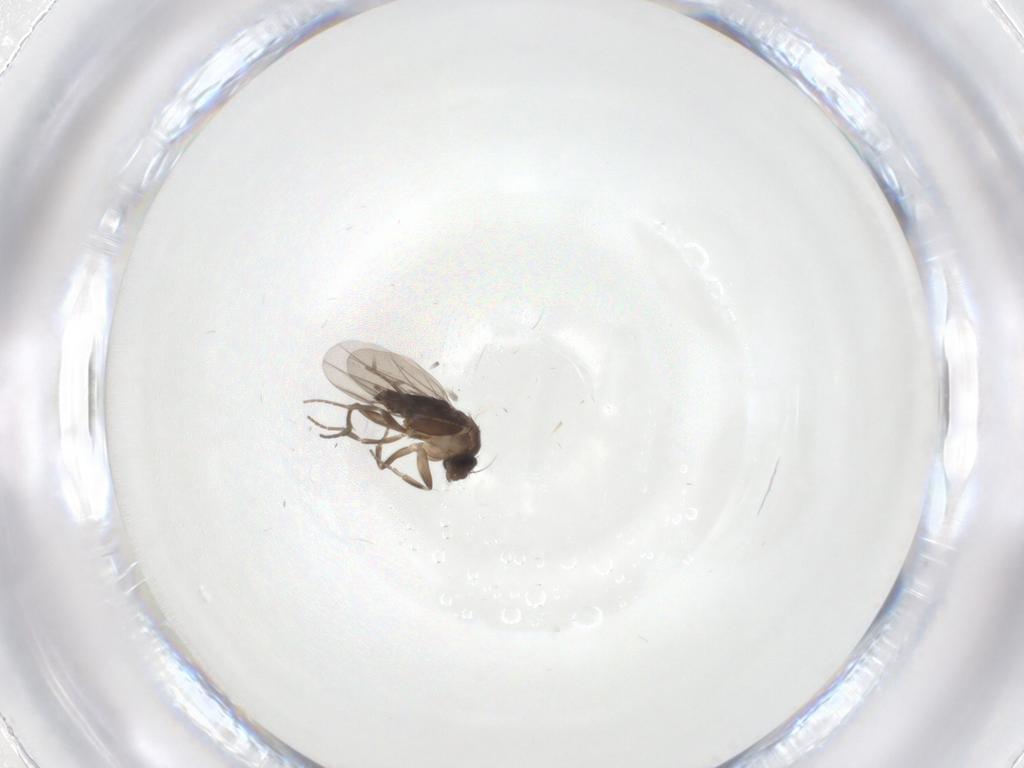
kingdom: Animalia
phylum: Arthropoda
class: Insecta
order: Diptera
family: Phoridae
